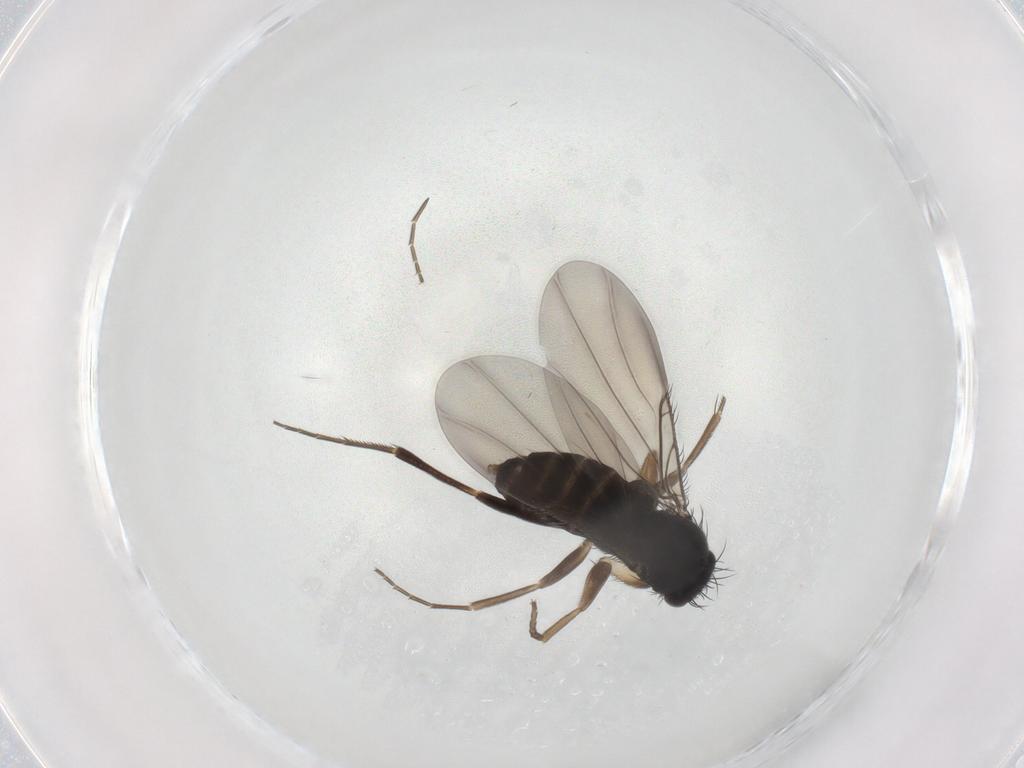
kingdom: Animalia
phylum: Arthropoda
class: Insecta
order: Diptera
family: Phoridae
